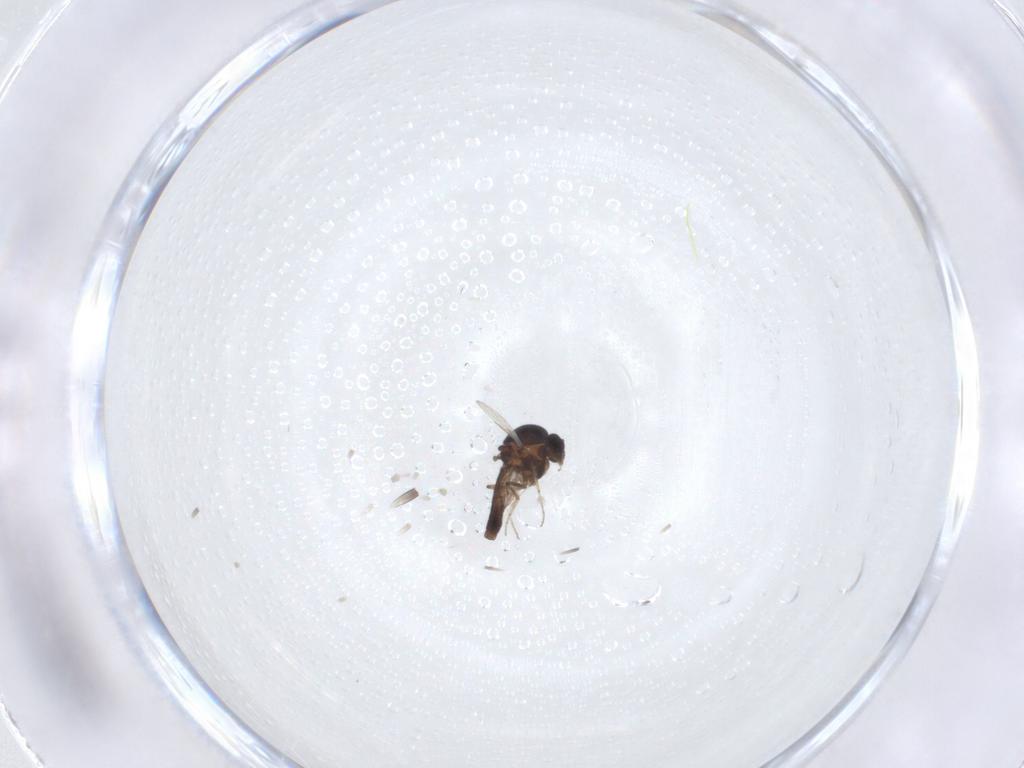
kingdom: Animalia
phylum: Arthropoda
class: Insecta
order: Diptera
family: Ceratopogonidae
